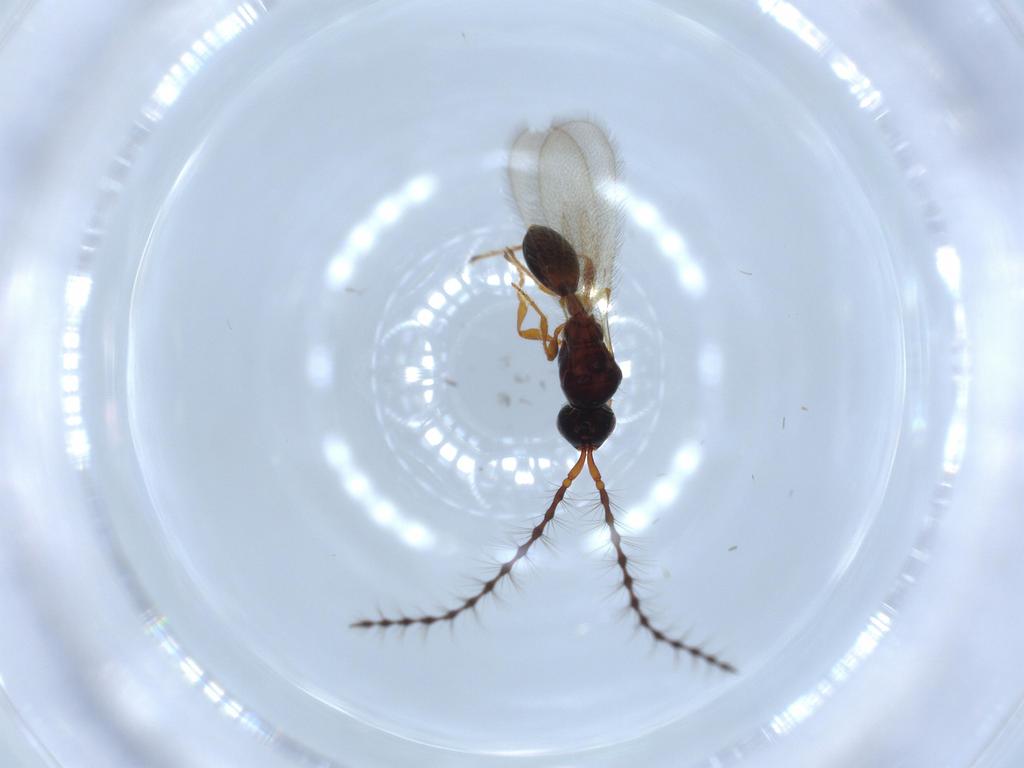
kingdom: Animalia
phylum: Arthropoda
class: Insecta
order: Hymenoptera
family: Diapriidae
